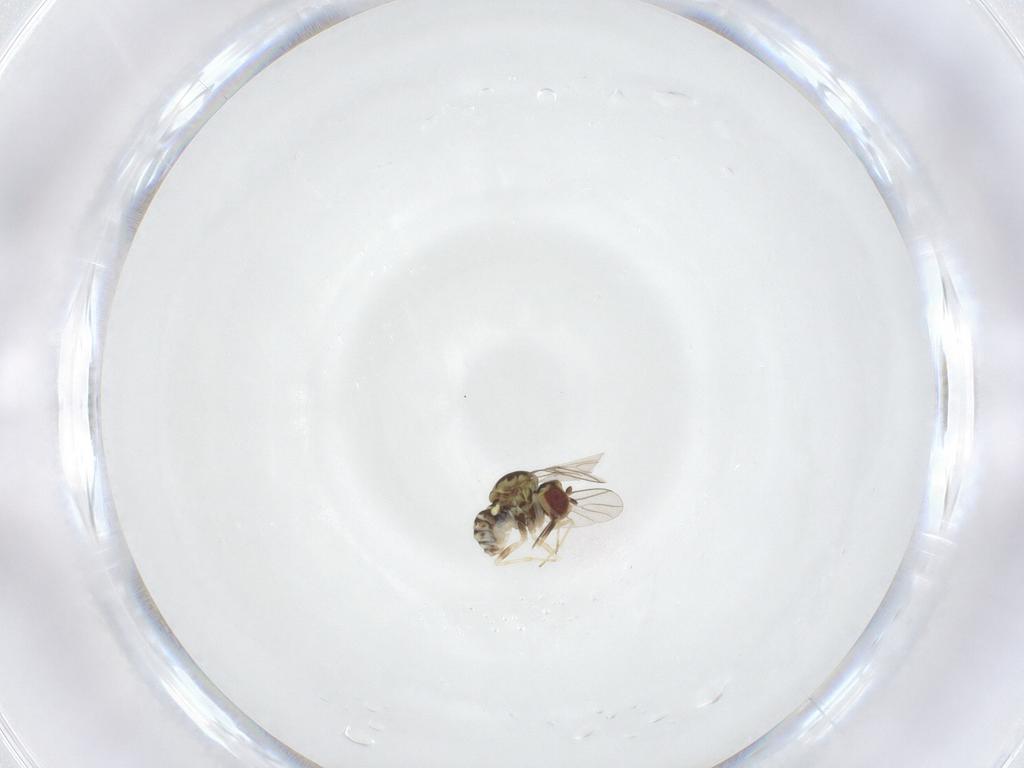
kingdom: Animalia
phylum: Arthropoda
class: Insecta
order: Diptera
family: Bombyliidae
